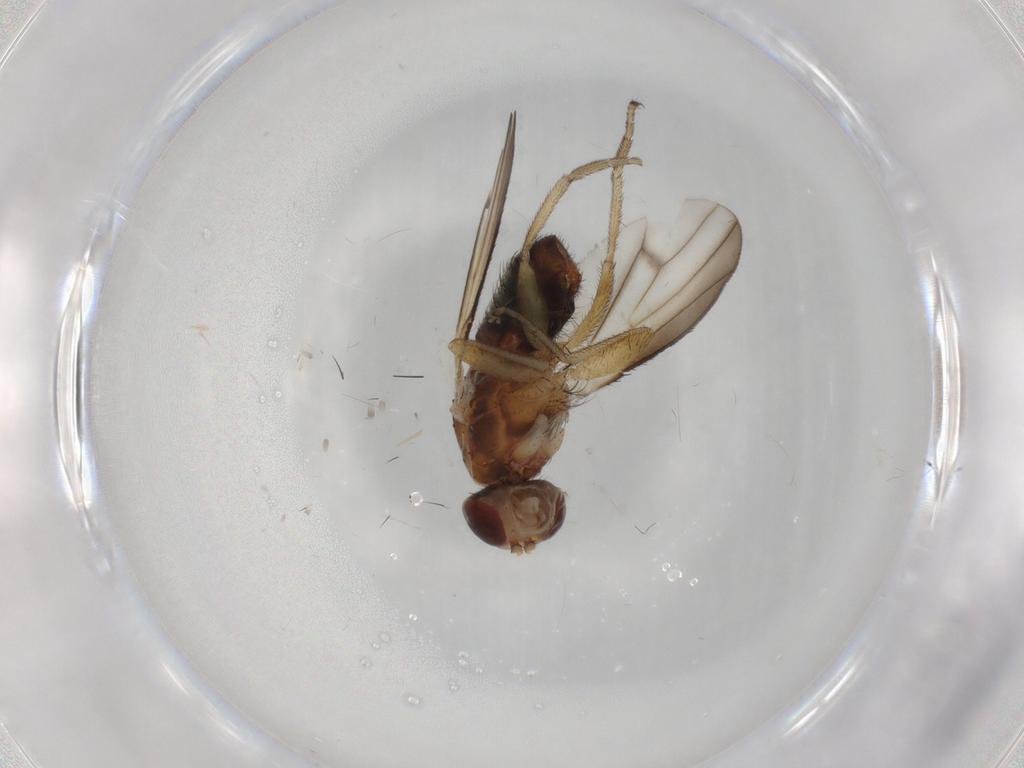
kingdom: Animalia
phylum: Arthropoda
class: Insecta
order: Diptera
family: Heleomyzidae
